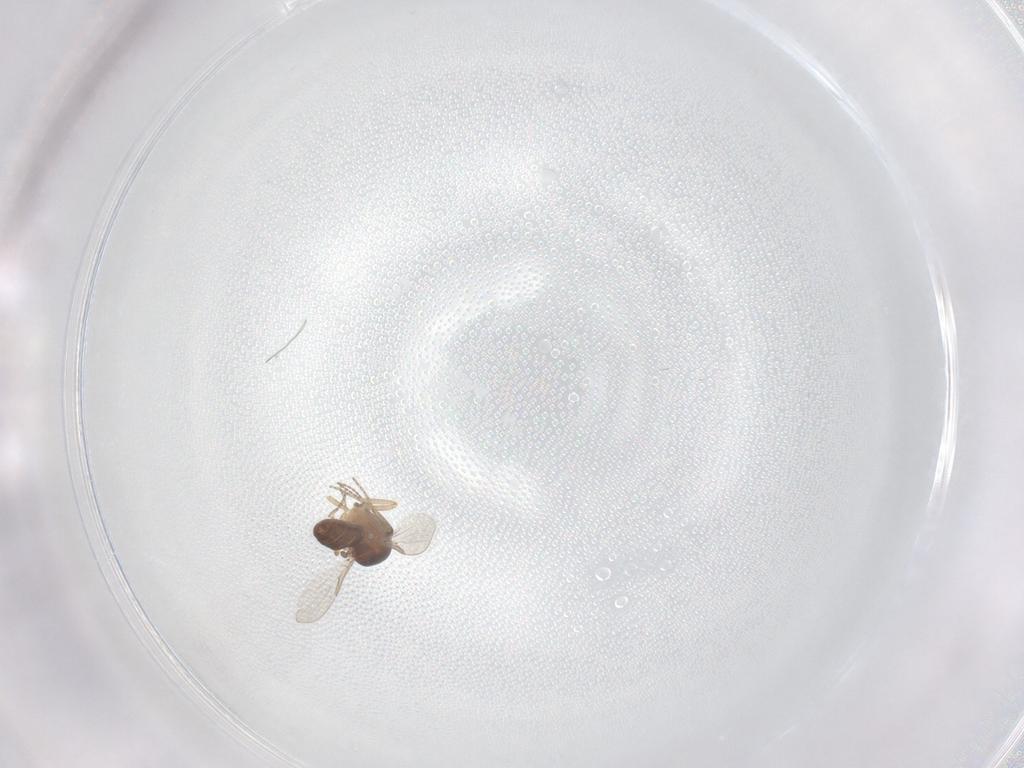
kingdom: Animalia
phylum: Arthropoda
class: Insecta
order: Diptera
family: Ceratopogonidae
